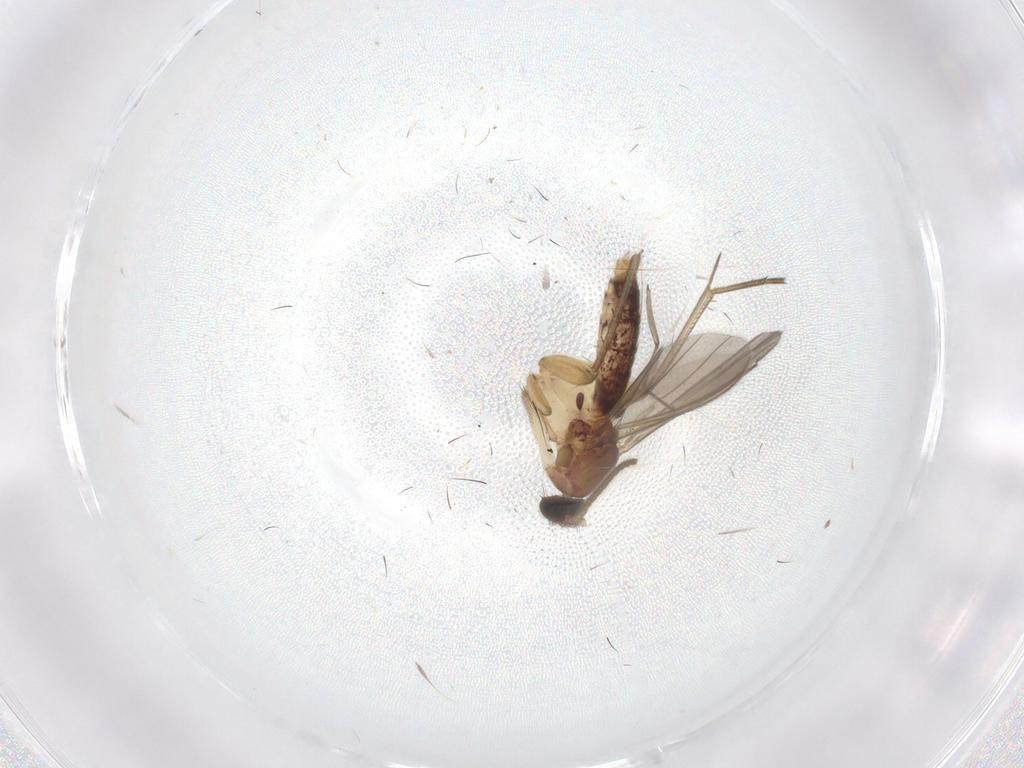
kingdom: Animalia
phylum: Arthropoda
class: Insecta
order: Diptera
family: Mycetophilidae
